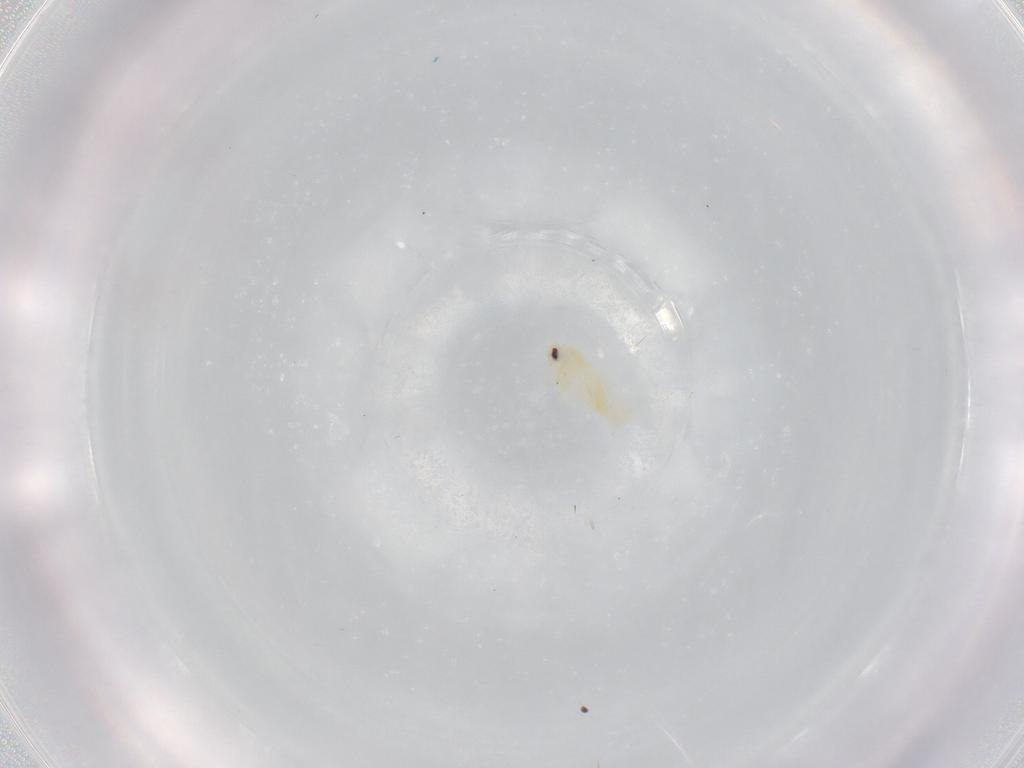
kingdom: Animalia
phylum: Arthropoda
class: Insecta
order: Hemiptera
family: Aleyrodidae
